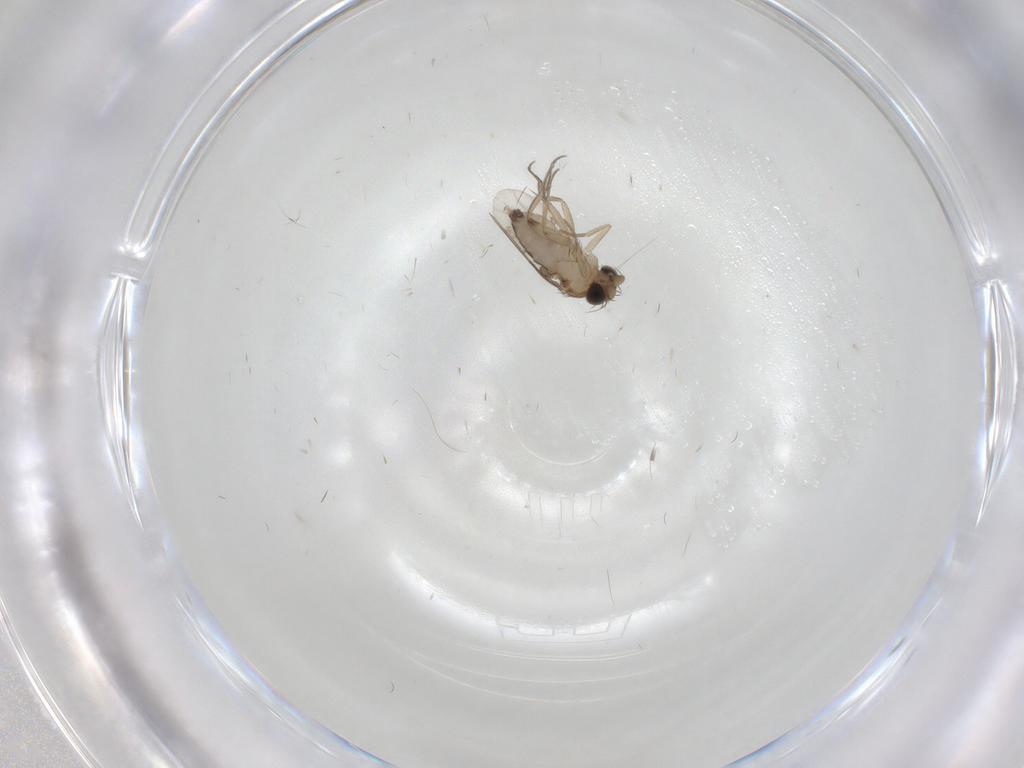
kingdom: Animalia
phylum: Arthropoda
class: Insecta
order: Diptera
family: Phoridae
